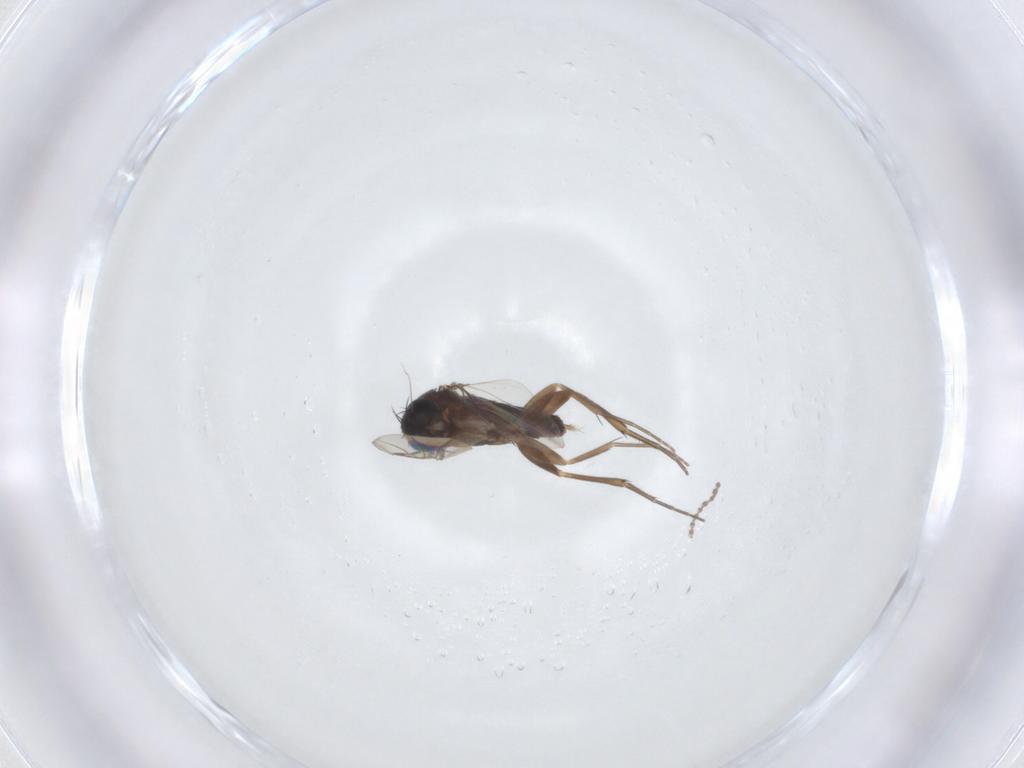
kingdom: Animalia
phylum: Arthropoda
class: Insecta
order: Diptera
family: Phoridae
